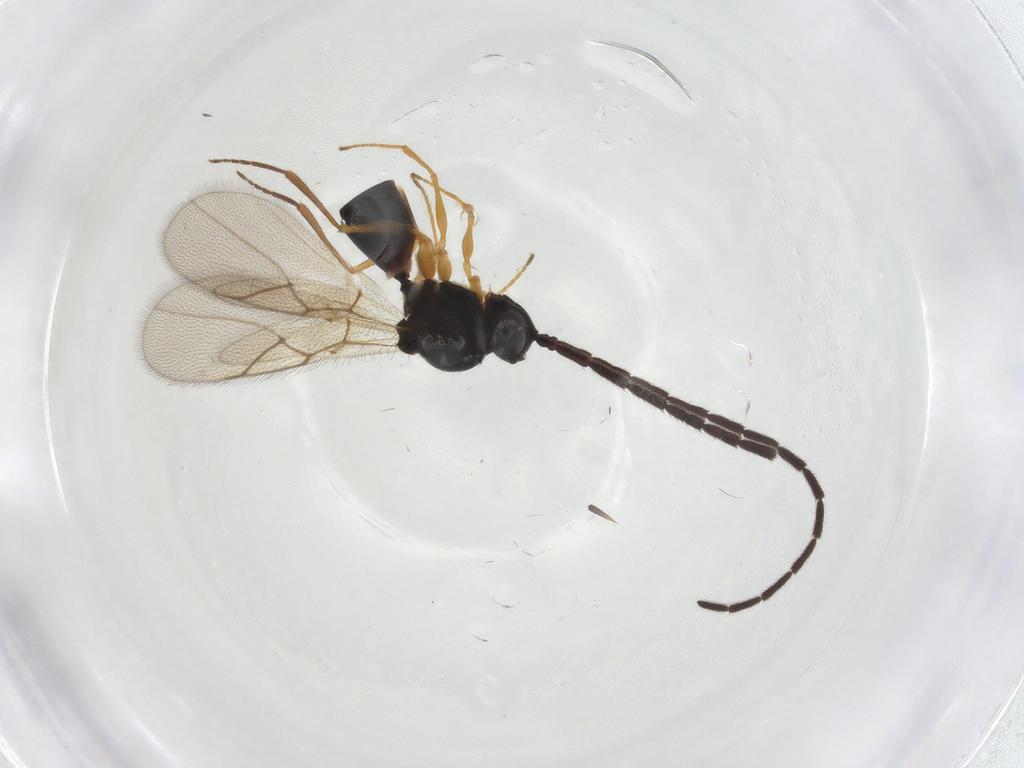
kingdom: Animalia
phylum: Arthropoda
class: Insecta
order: Hymenoptera
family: Figitidae
